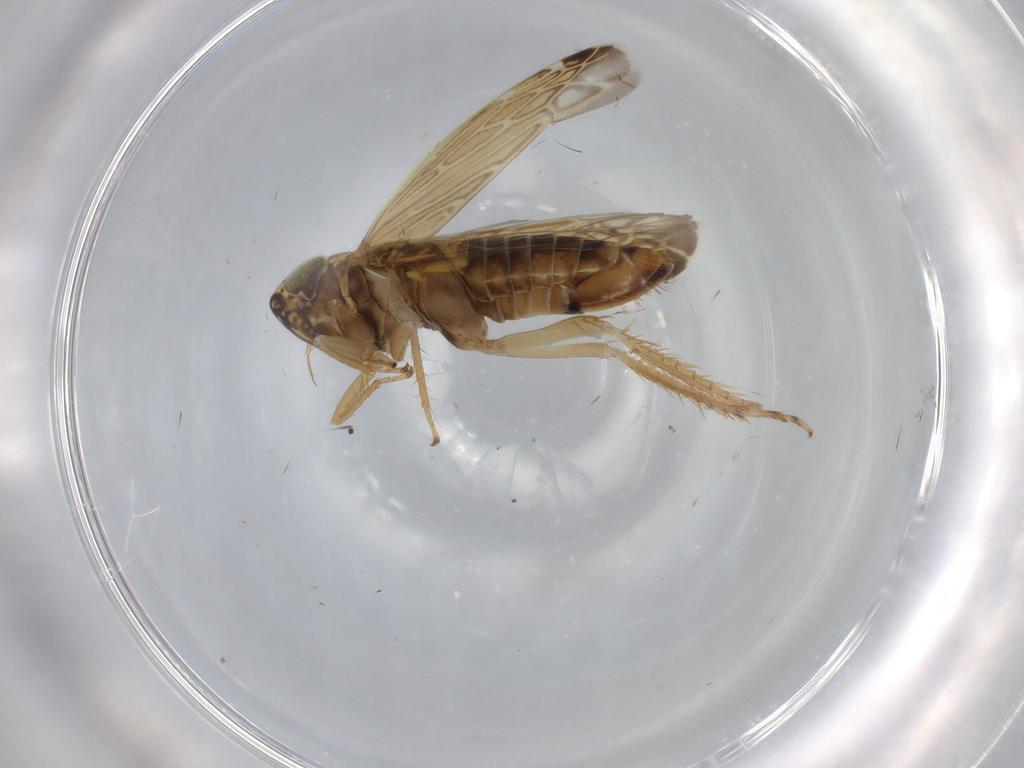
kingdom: Animalia
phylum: Arthropoda
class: Insecta
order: Hemiptera
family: Cicadellidae
